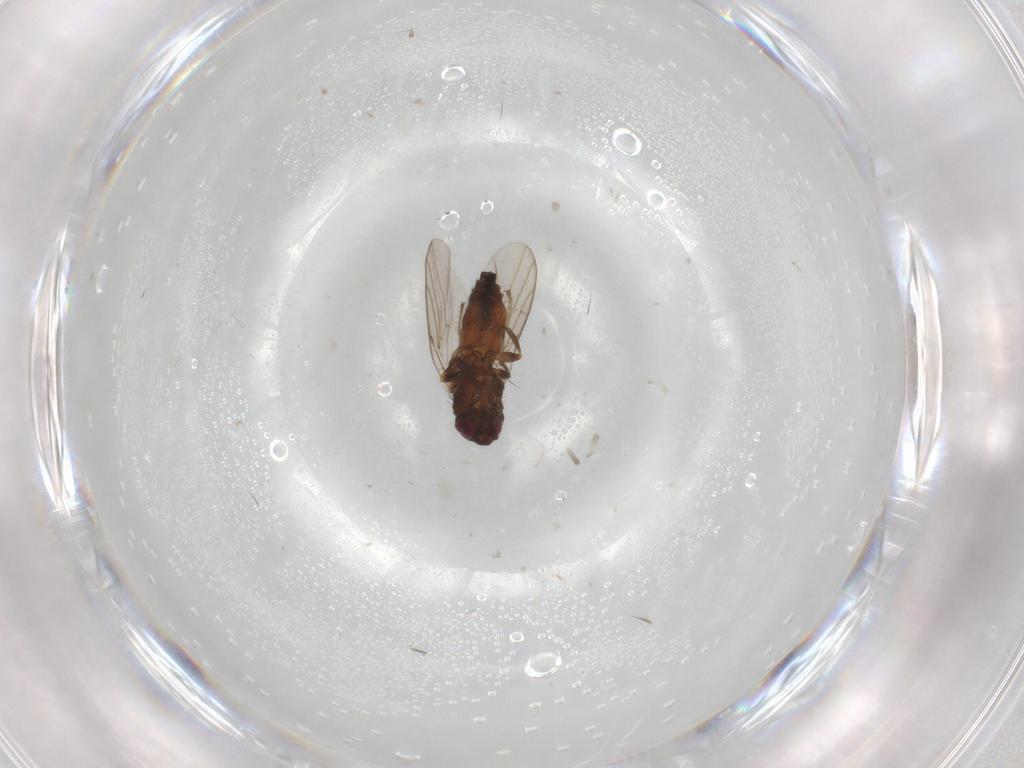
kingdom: Animalia
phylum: Arthropoda
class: Insecta
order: Diptera
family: Chloropidae
